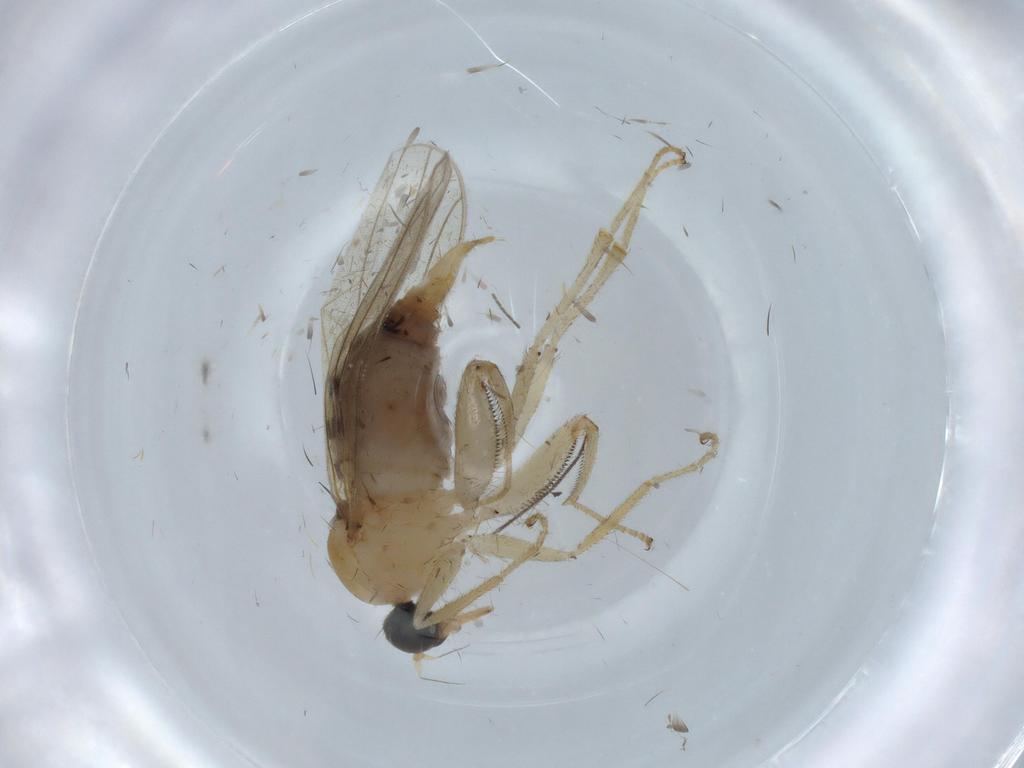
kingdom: Animalia
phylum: Arthropoda
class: Insecta
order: Diptera
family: Hybotidae
